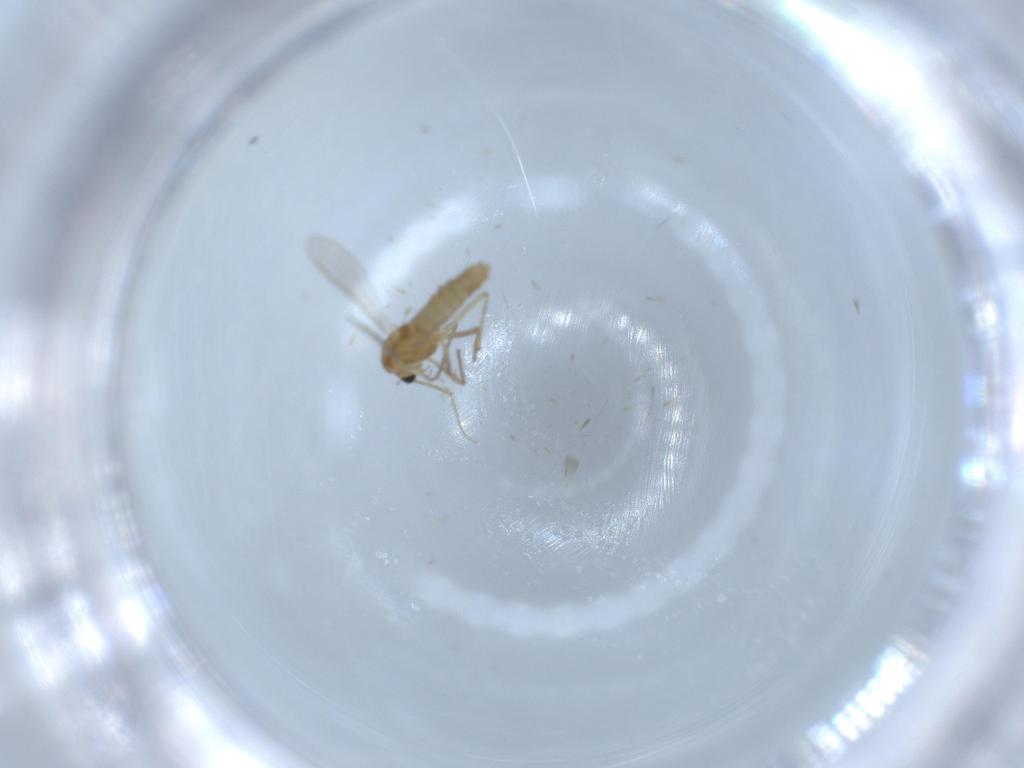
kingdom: Animalia
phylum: Arthropoda
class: Insecta
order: Diptera
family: Chironomidae
